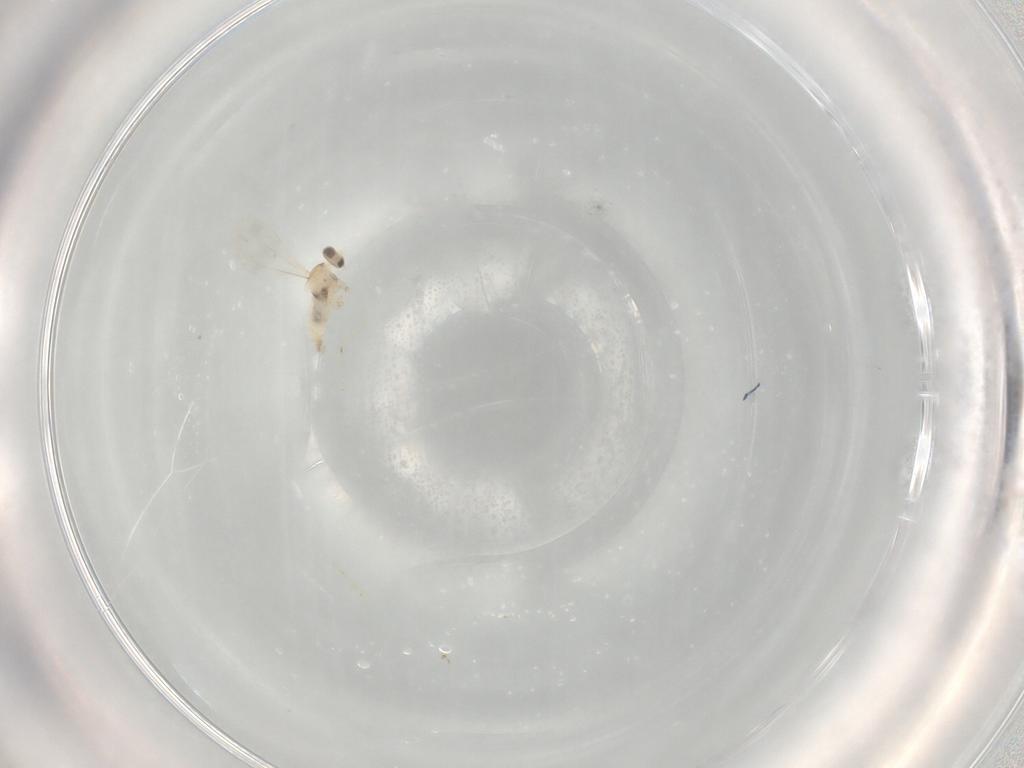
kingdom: Animalia
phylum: Arthropoda
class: Insecta
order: Diptera
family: Cecidomyiidae
